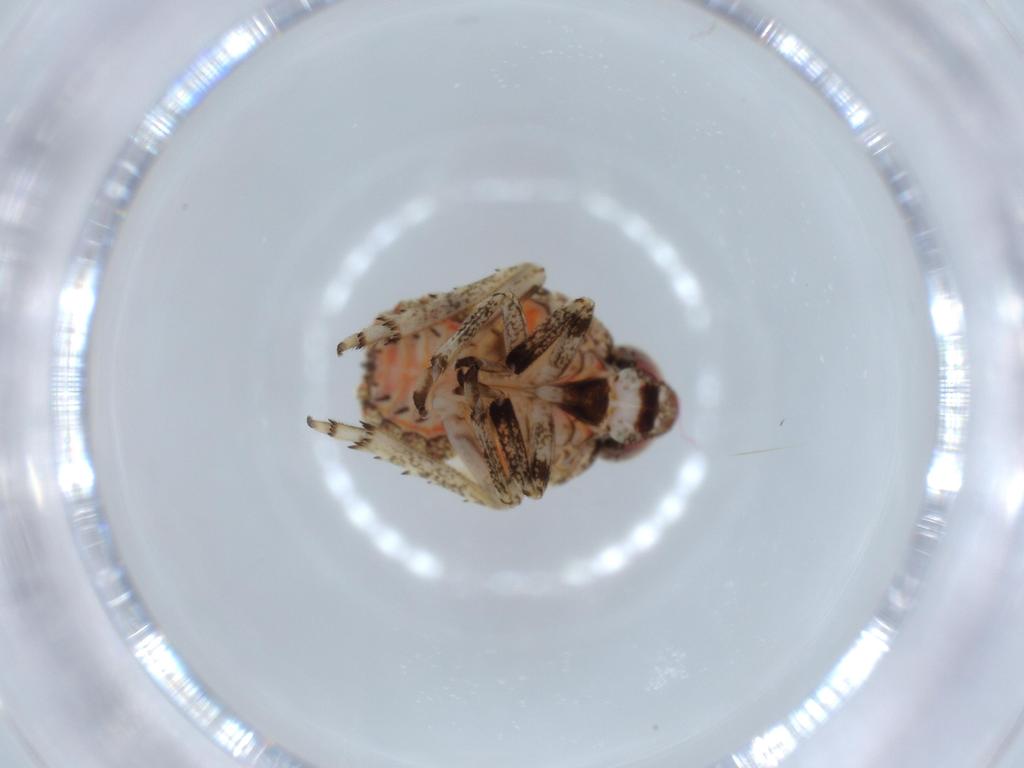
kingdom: Animalia
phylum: Arthropoda
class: Insecta
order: Hemiptera
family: Issidae
